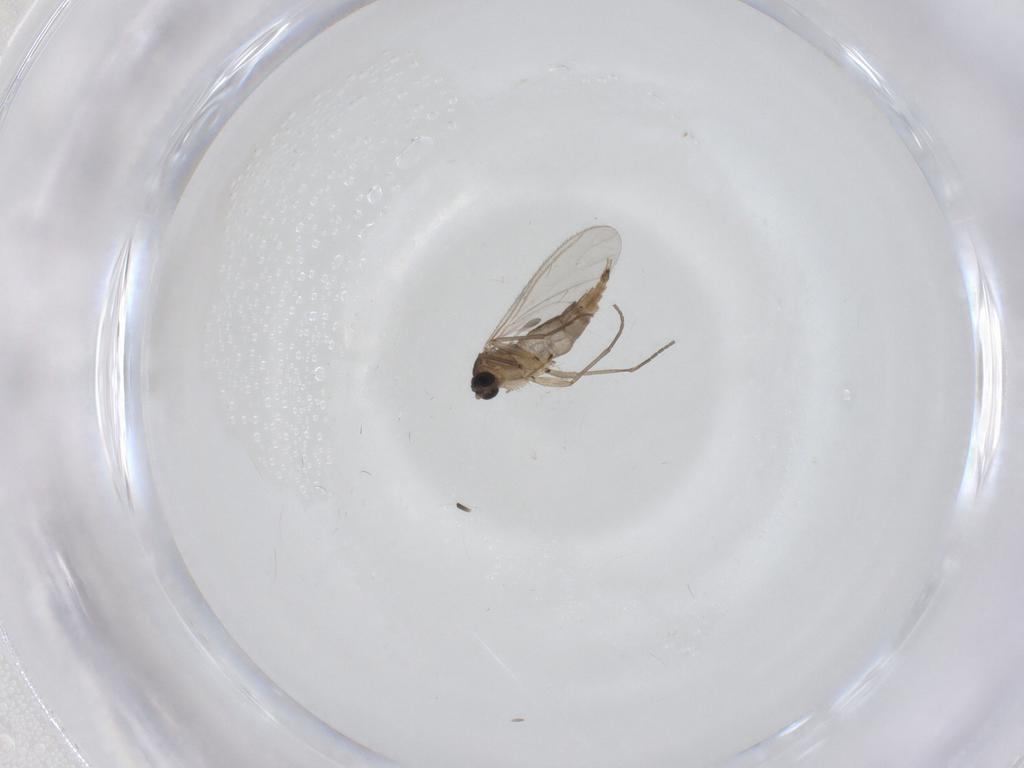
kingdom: Animalia
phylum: Arthropoda
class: Insecta
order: Diptera
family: Sciaridae
